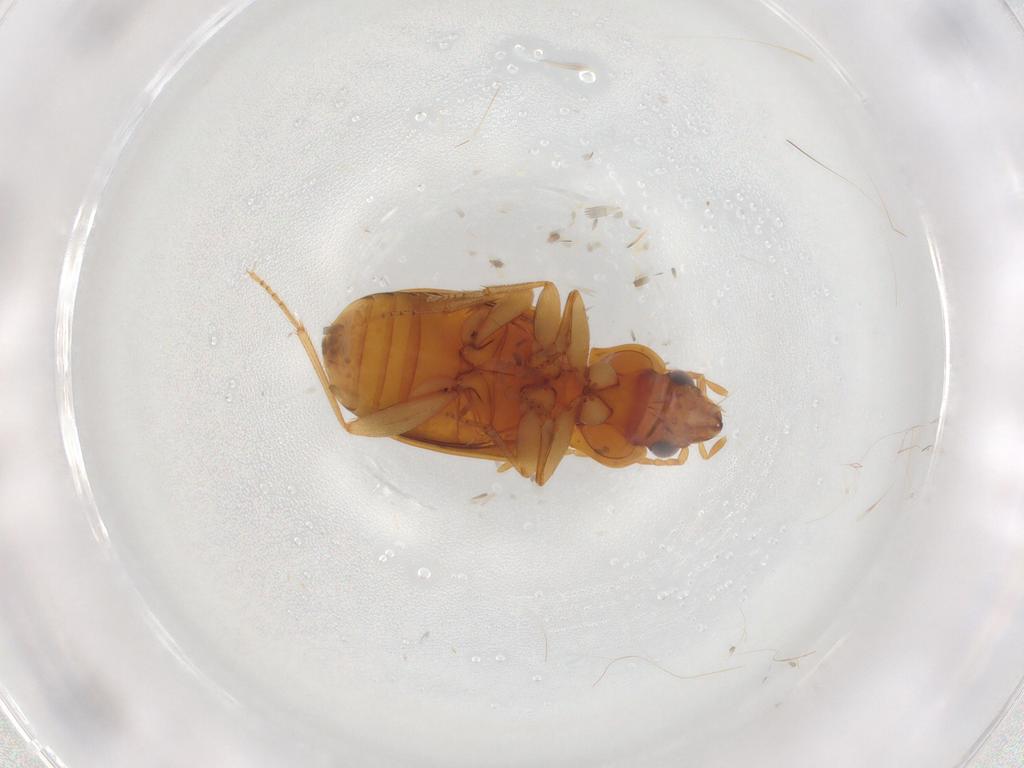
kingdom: Animalia
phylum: Arthropoda
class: Insecta
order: Coleoptera
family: Carabidae
